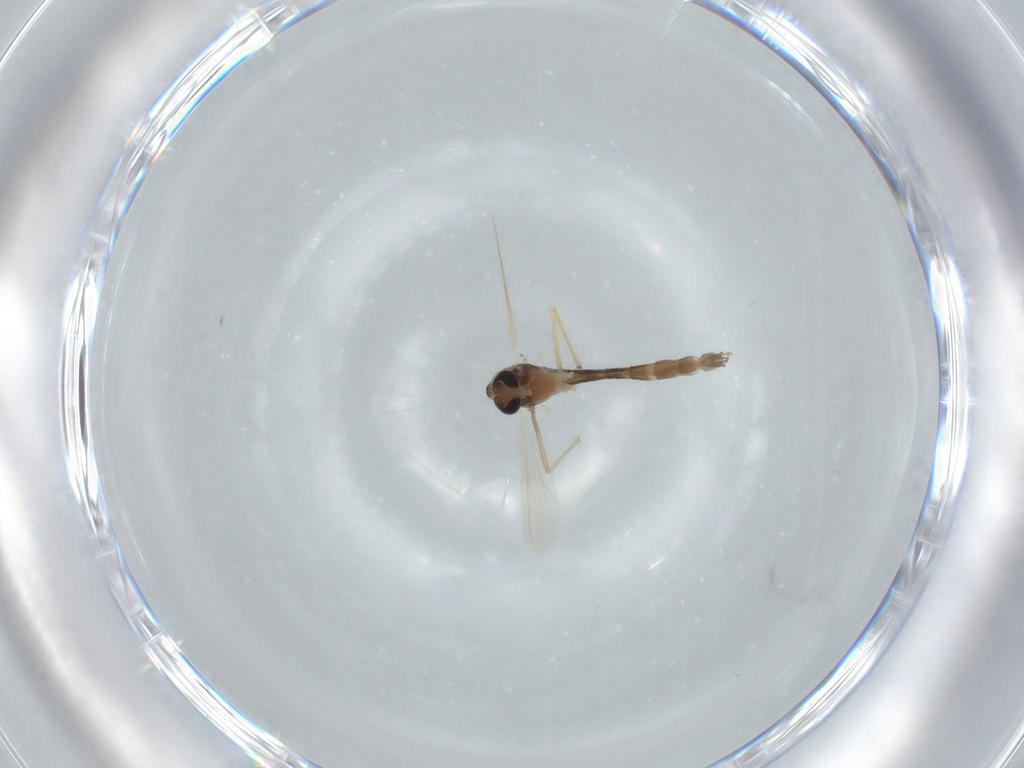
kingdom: Animalia
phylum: Arthropoda
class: Insecta
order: Diptera
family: Chironomidae
